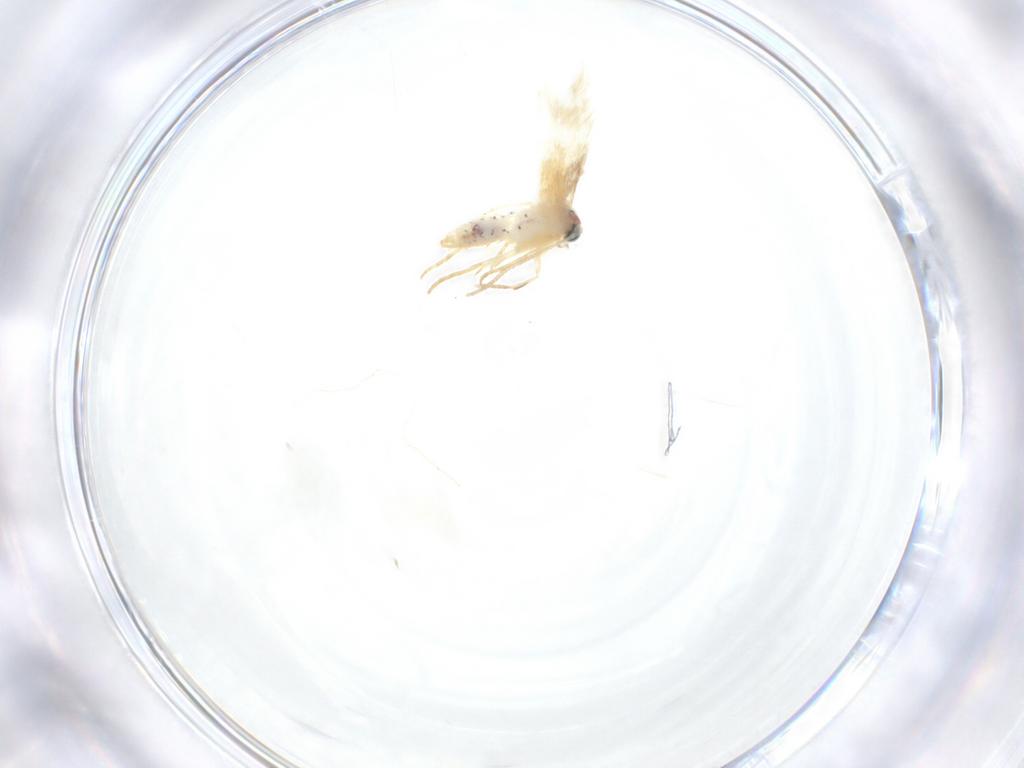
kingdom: Animalia
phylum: Arthropoda
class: Insecta
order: Lepidoptera
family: Nepticulidae
